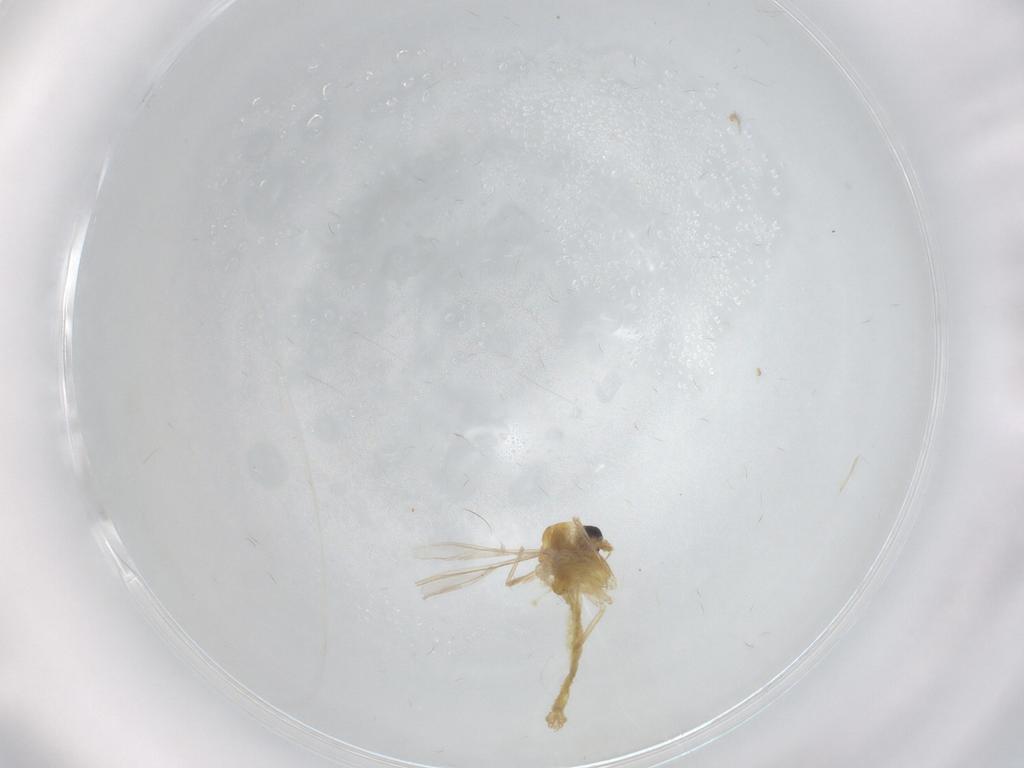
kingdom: Animalia
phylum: Arthropoda
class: Insecta
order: Diptera
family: Chironomidae
